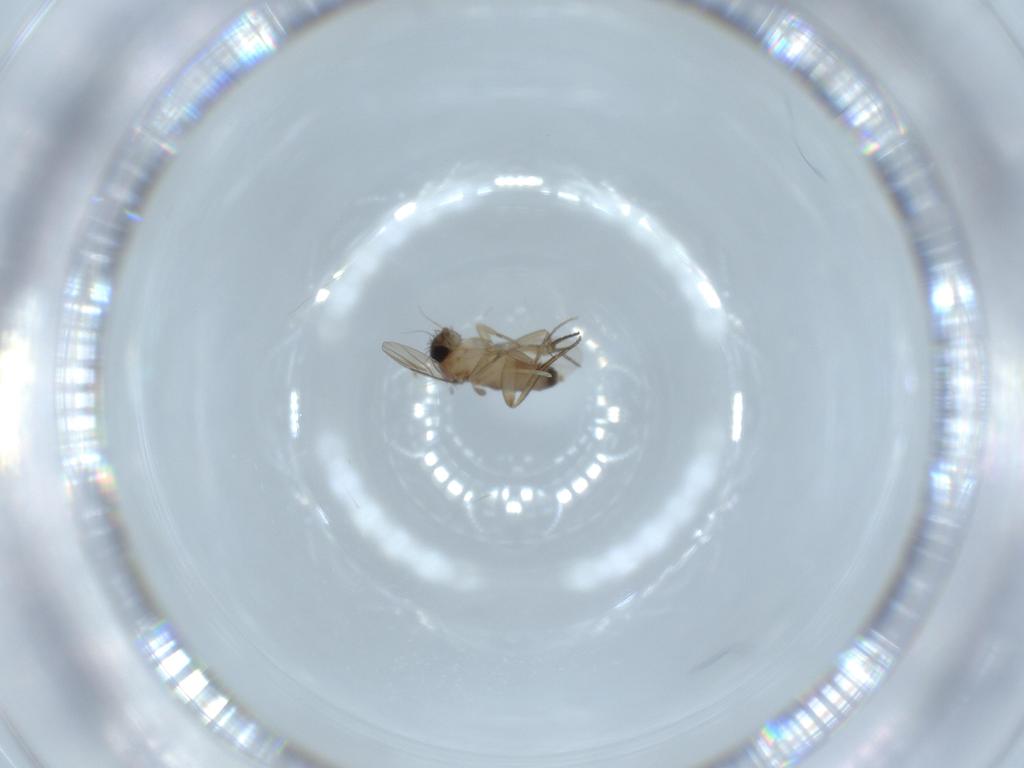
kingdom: Animalia
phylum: Arthropoda
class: Insecta
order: Diptera
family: Phoridae
